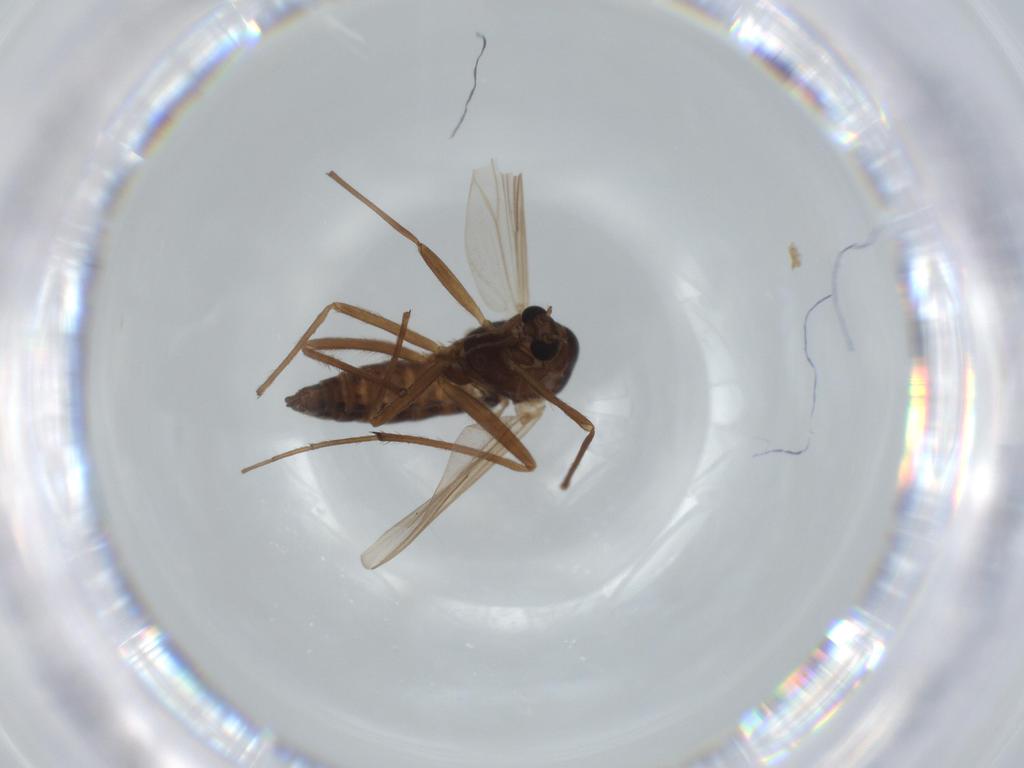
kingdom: Animalia
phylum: Arthropoda
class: Insecta
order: Diptera
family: Chironomidae
